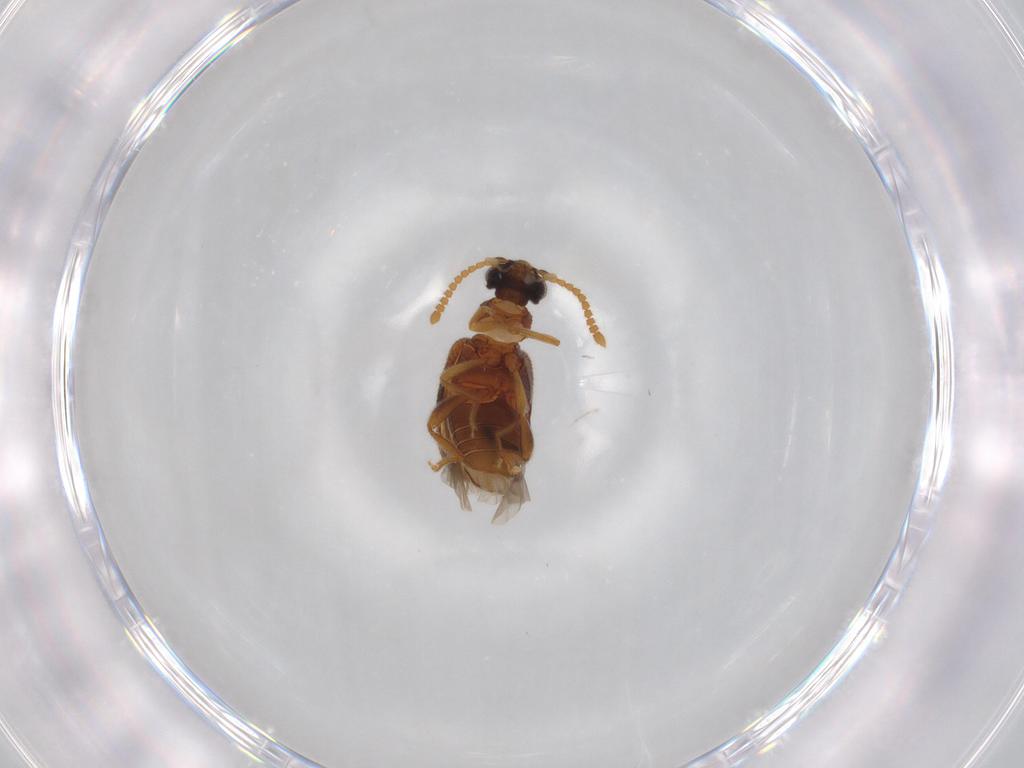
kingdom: Animalia
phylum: Arthropoda
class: Insecta
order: Coleoptera
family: Aderidae
